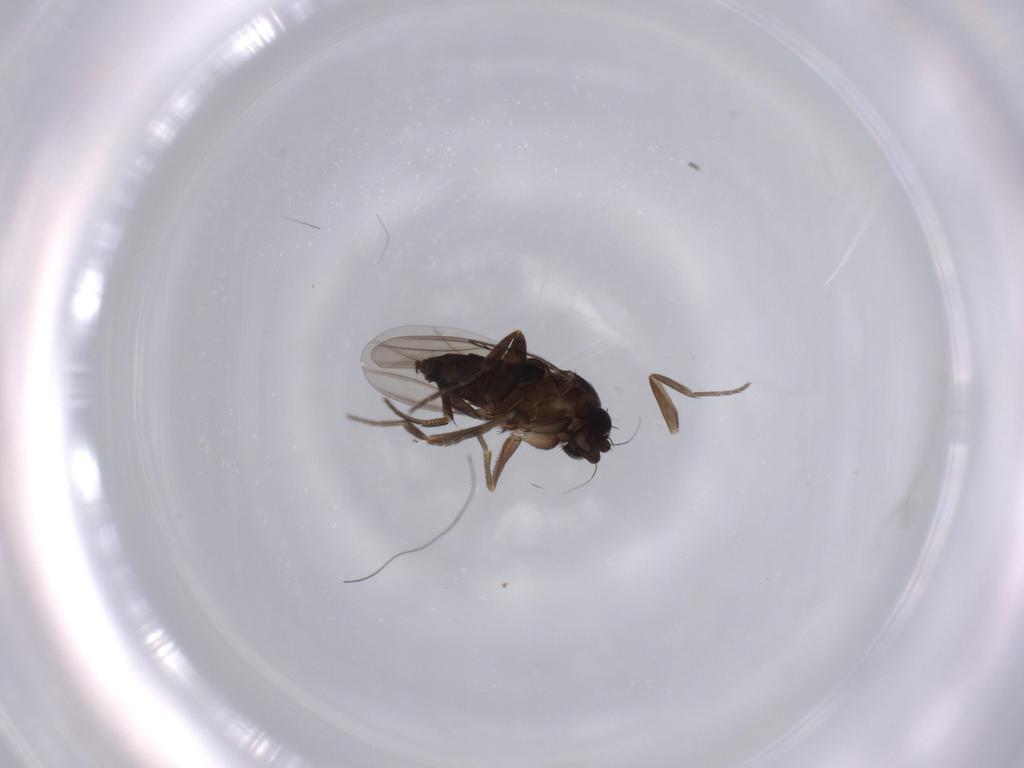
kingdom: Animalia
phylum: Arthropoda
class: Insecta
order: Diptera
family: Phoridae
